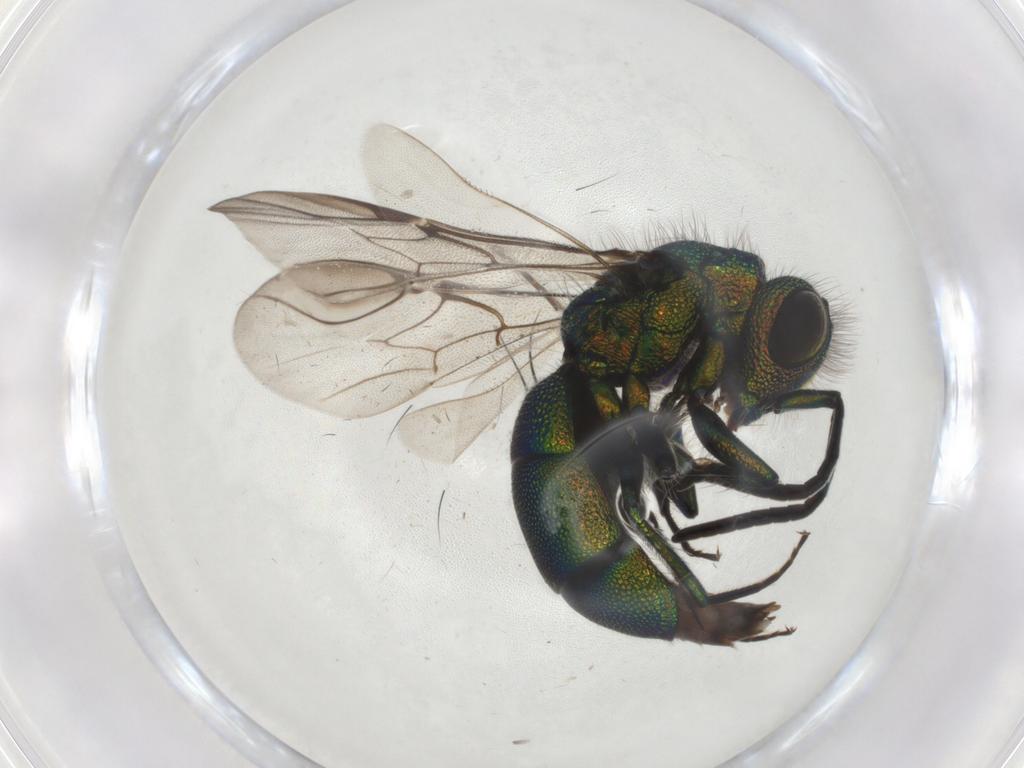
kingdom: Animalia
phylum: Arthropoda
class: Insecta
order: Hymenoptera
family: Chrysididae
